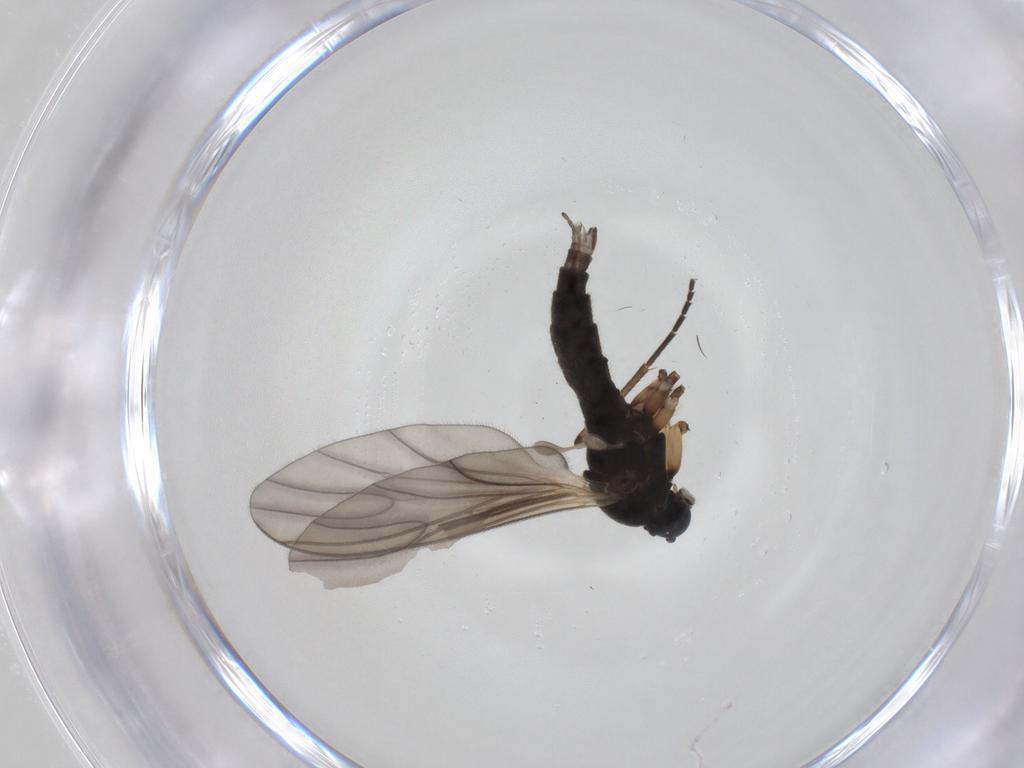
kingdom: Animalia
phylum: Arthropoda
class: Insecta
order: Diptera
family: Sciaridae
